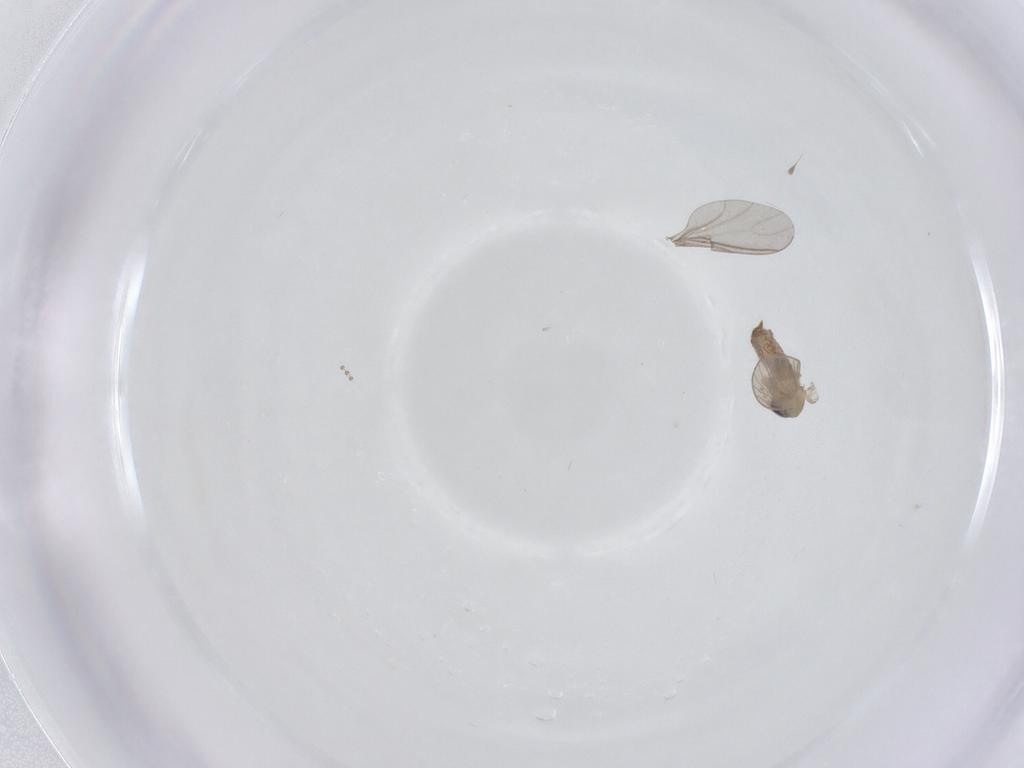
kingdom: Animalia
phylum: Arthropoda
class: Insecta
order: Diptera
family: Psychodidae
